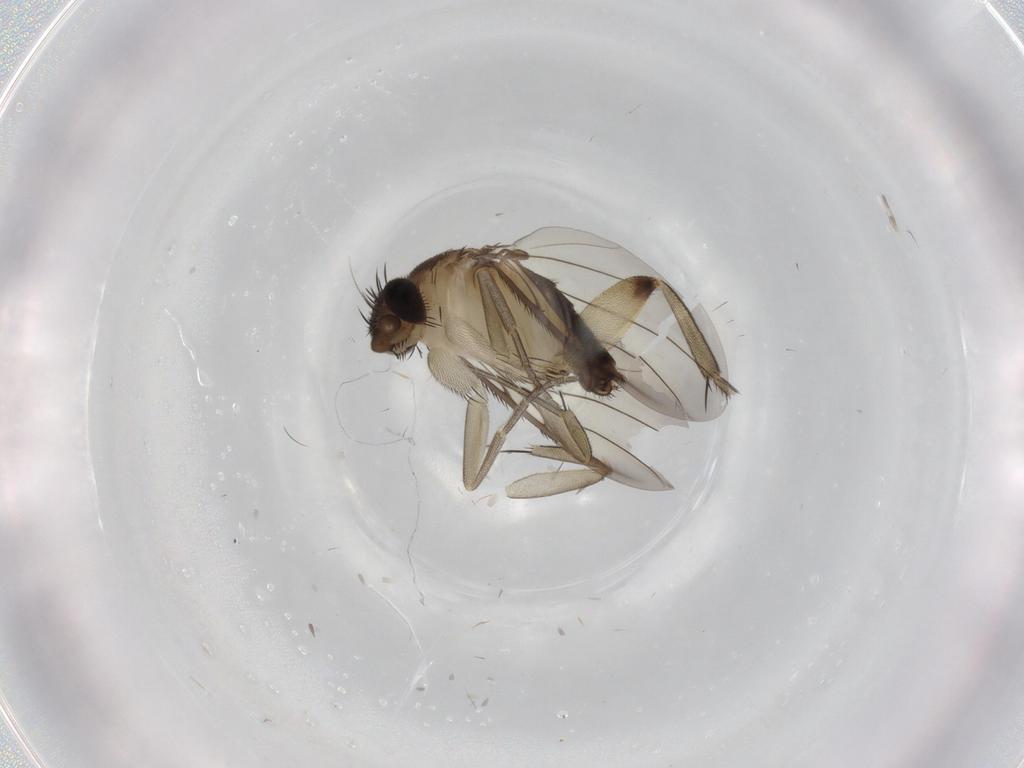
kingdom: Animalia
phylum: Arthropoda
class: Insecta
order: Diptera
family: Phoridae
